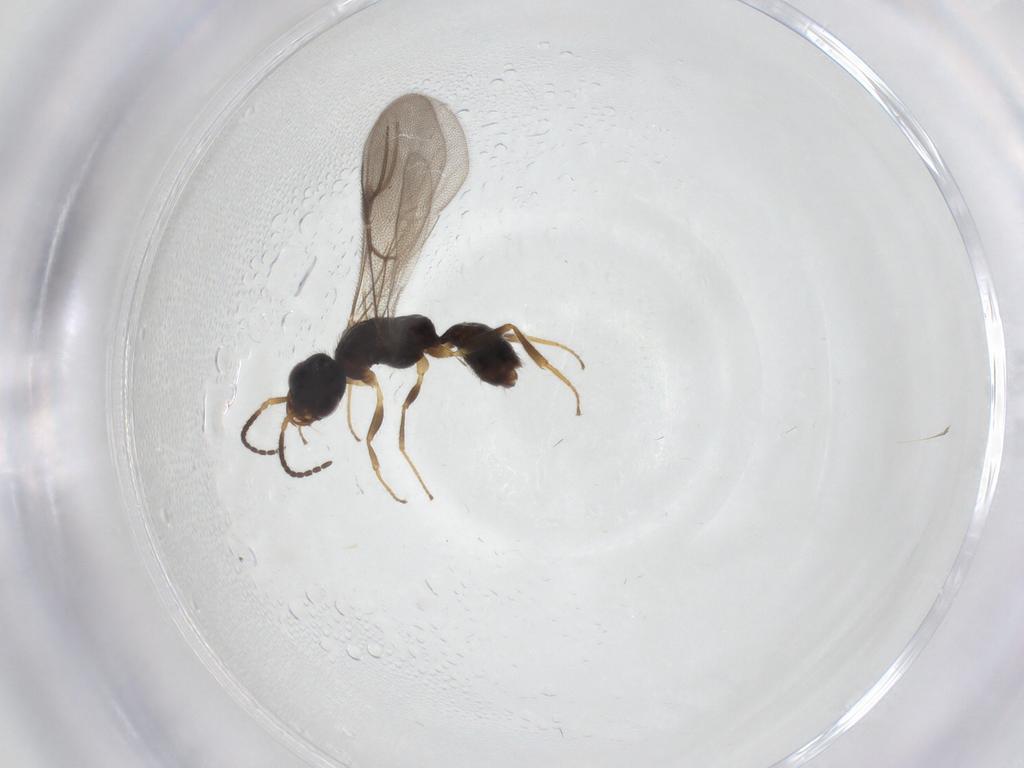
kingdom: Animalia
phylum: Arthropoda
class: Insecta
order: Hymenoptera
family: Bethylidae
